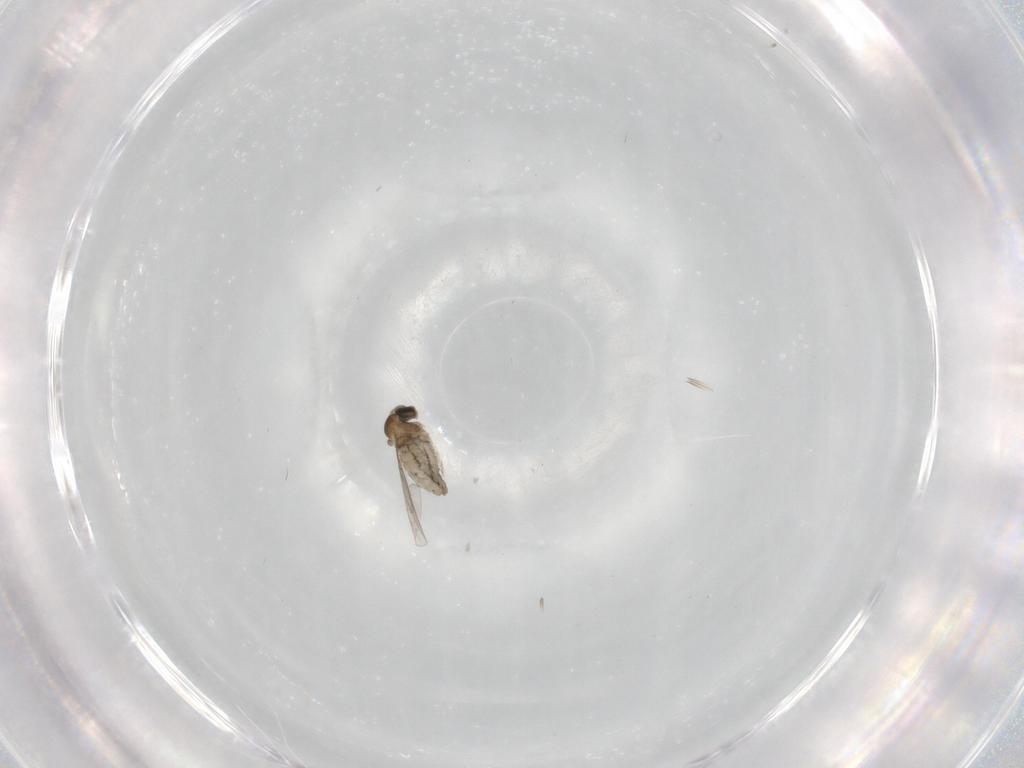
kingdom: Animalia
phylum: Arthropoda
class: Insecta
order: Diptera
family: Cecidomyiidae
